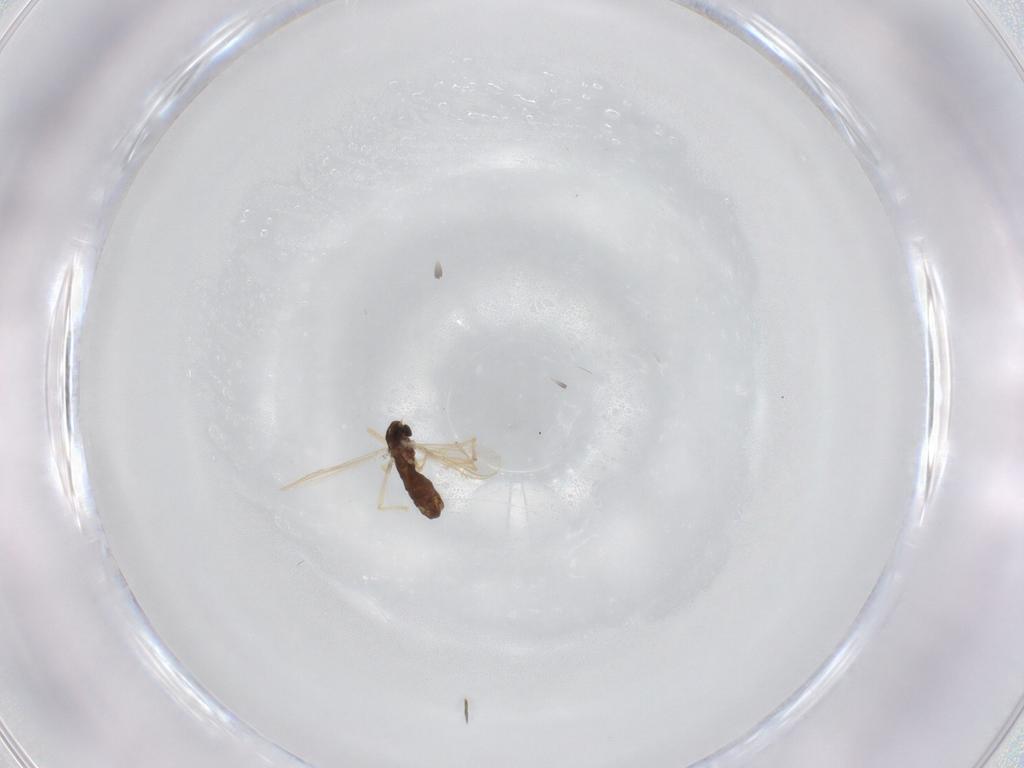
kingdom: Animalia
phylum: Arthropoda
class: Insecta
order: Diptera
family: Chironomidae
